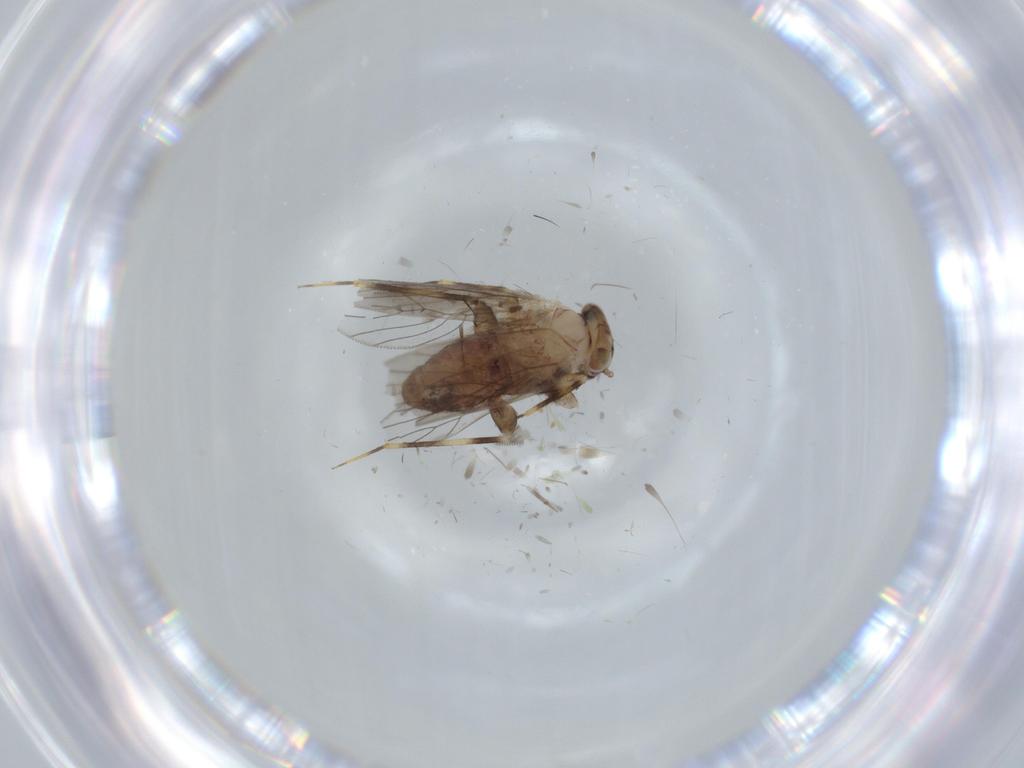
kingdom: Animalia
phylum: Arthropoda
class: Insecta
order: Psocodea
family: Lepidopsocidae
